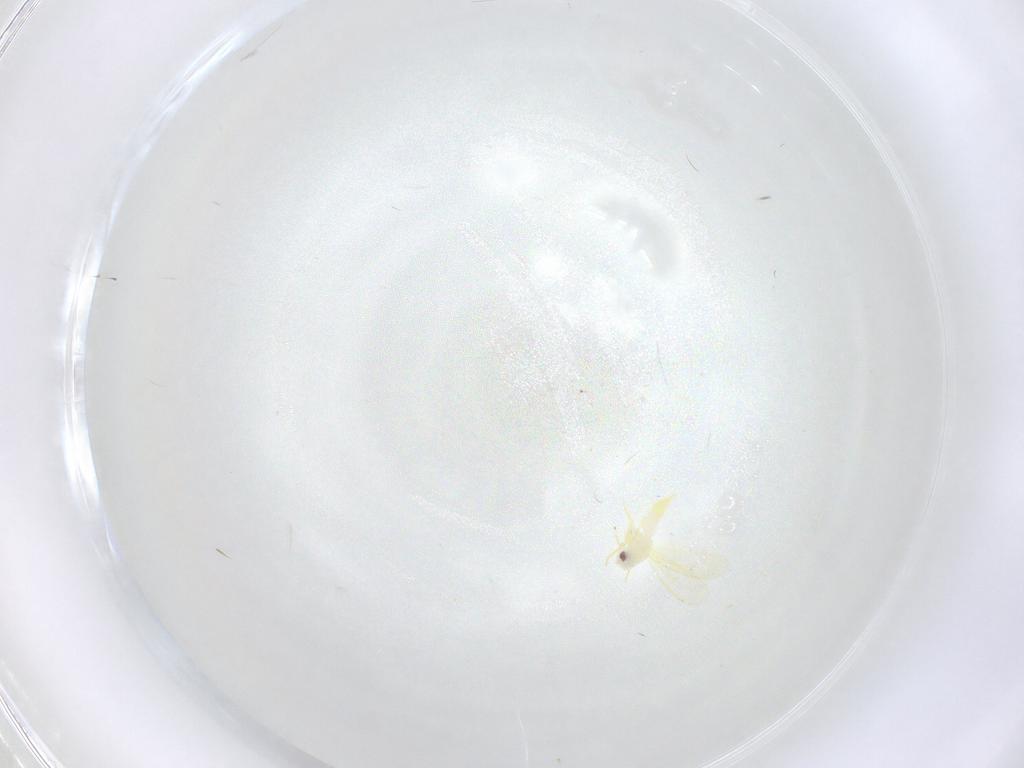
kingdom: Animalia
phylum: Arthropoda
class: Insecta
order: Lepidoptera
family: Tineidae
